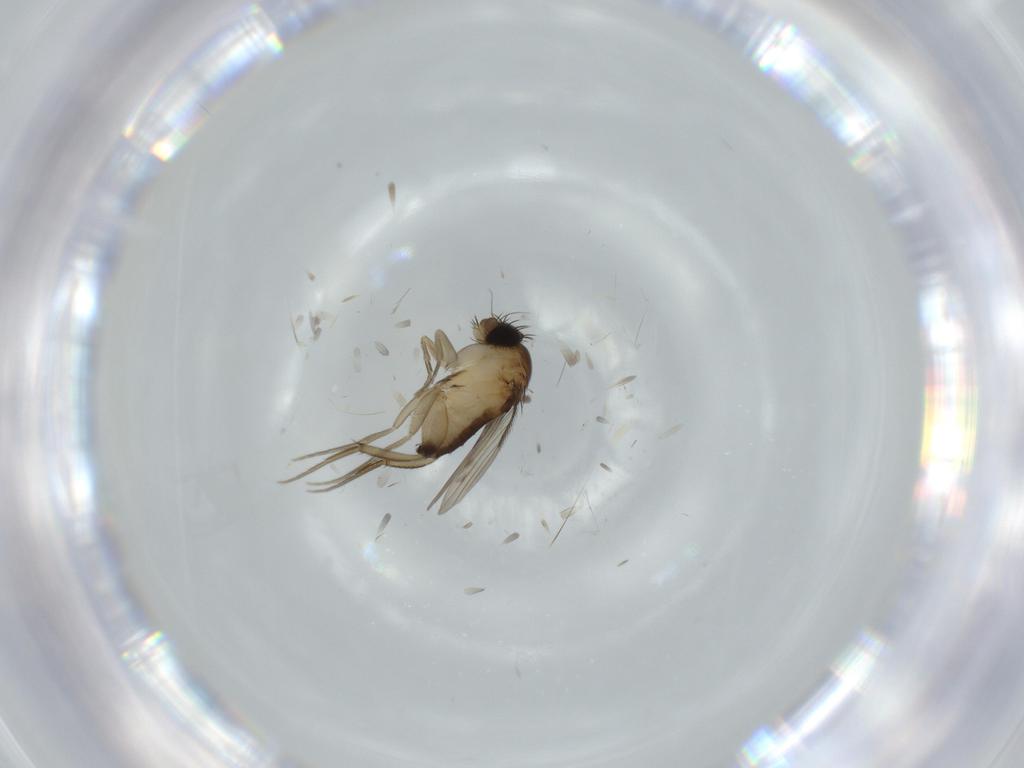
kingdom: Animalia
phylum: Arthropoda
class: Insecta
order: Diptera
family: Phoridae
